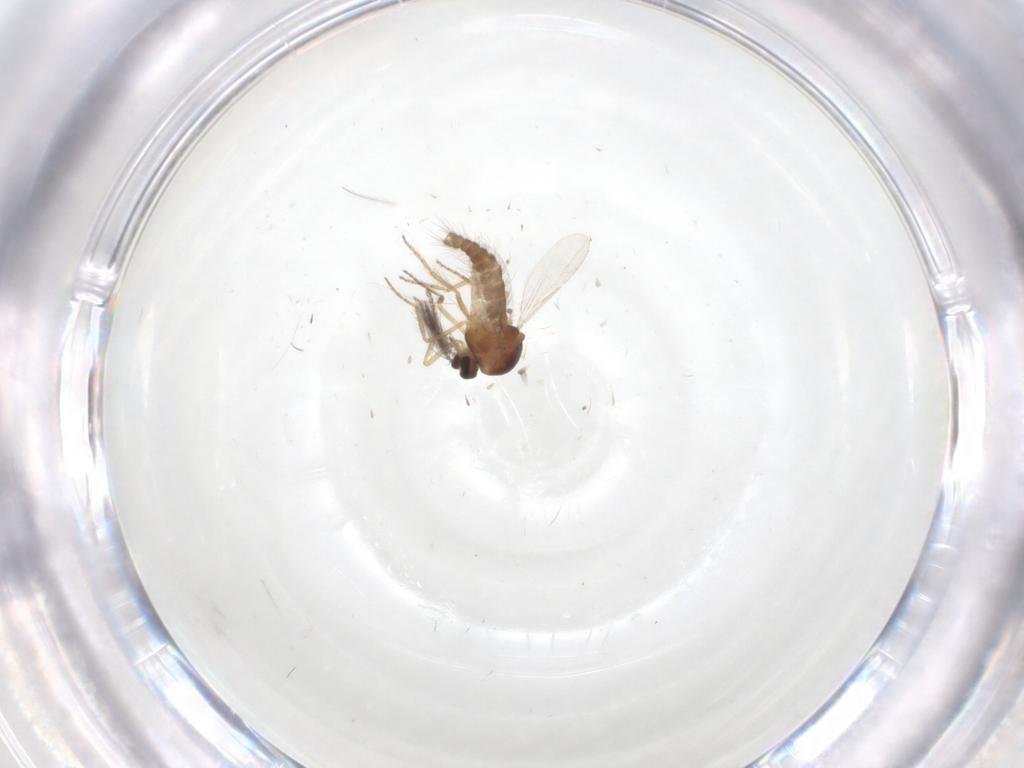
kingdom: Animalia
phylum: Arthropoda
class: Insecta
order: Diptera
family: Ceratopogonidae
